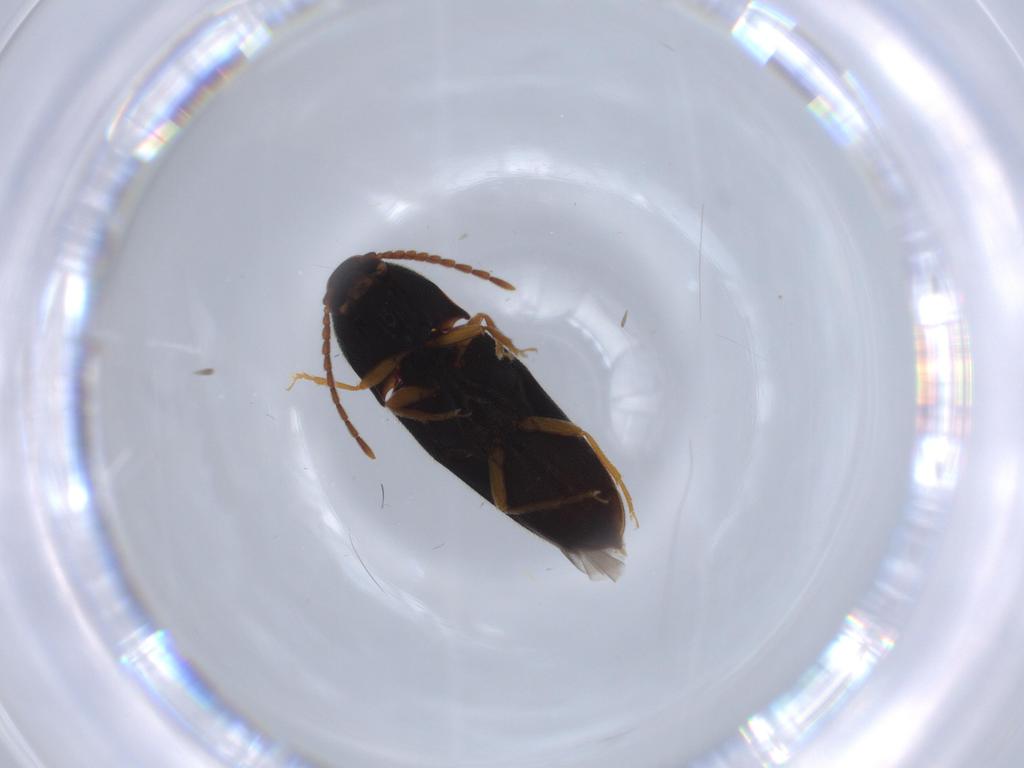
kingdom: Animalia
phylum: Arthropoda
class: Insecta
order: Coleoptera
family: Elateridae
